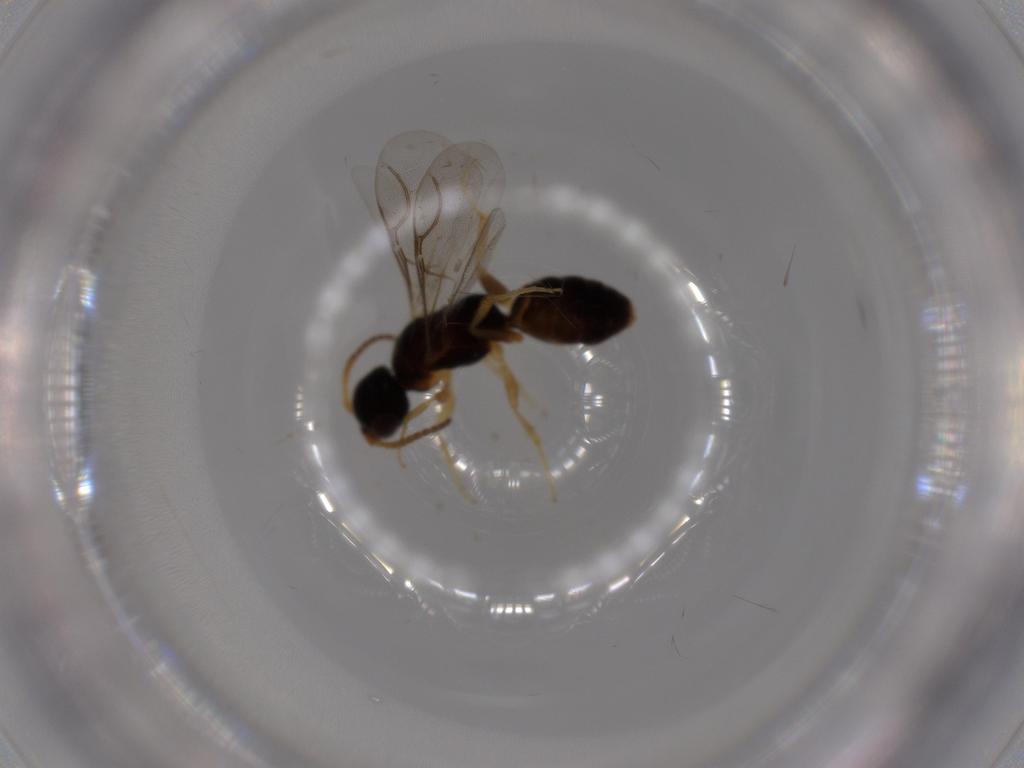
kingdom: Animalia
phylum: Arthropoda
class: Insecta
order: Hymenoptera
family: Bethylidae
